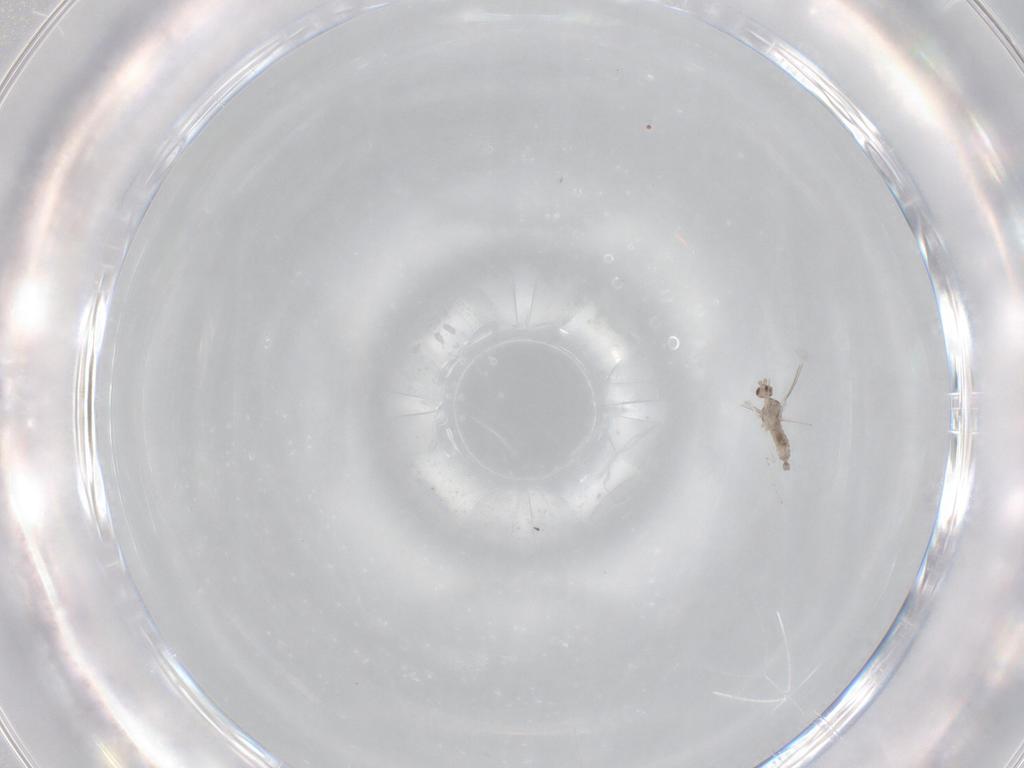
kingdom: Animalia
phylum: Arthropoda
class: Insecta
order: Diptera
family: Cecidomyiidae
